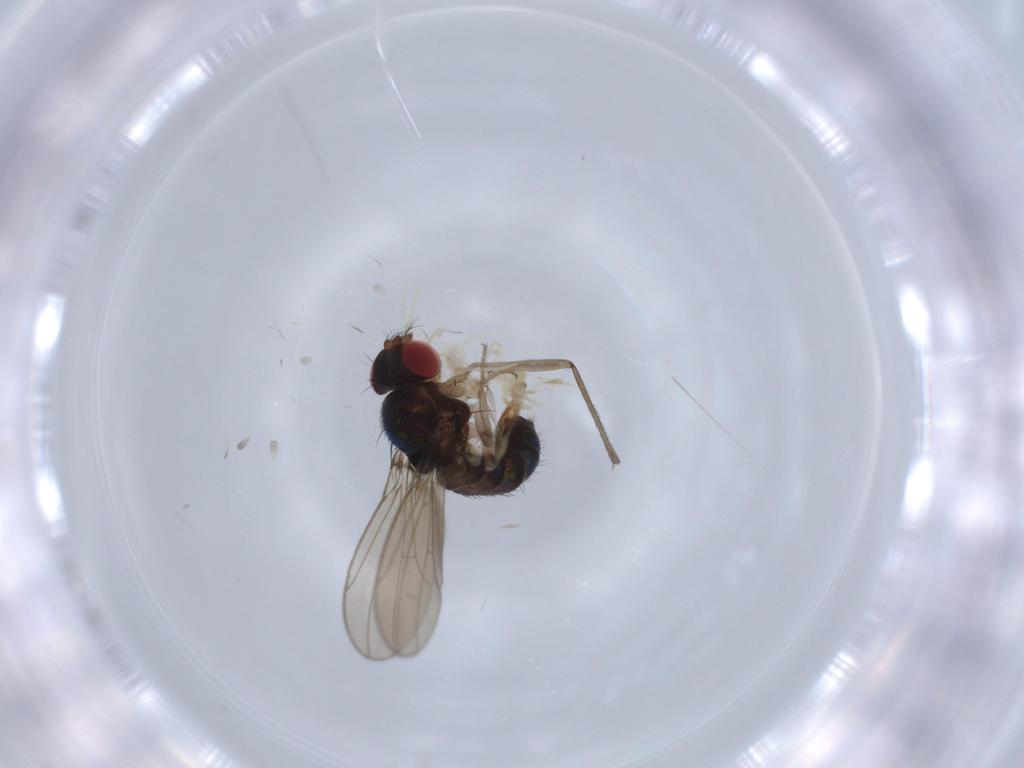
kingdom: Animalia
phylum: Arthropoda
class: Insecta
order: Diptera
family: Drosophilidae
